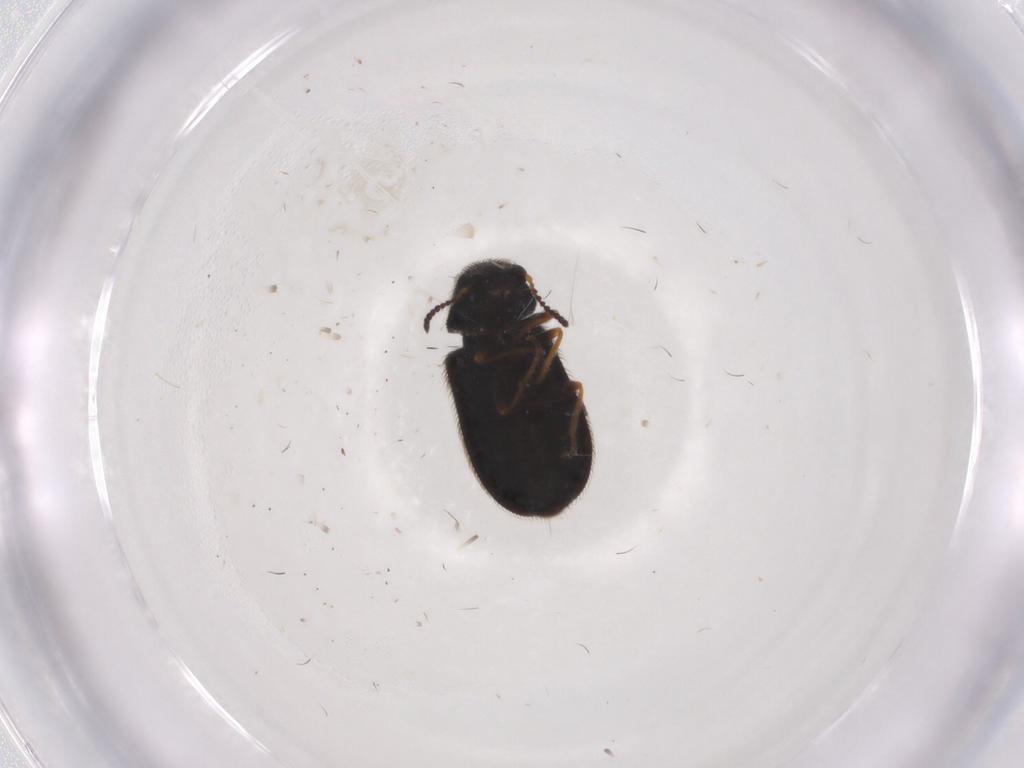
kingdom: Animalia
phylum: Arthropoda
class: Insecta
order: Coleoptera
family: Melyridae
